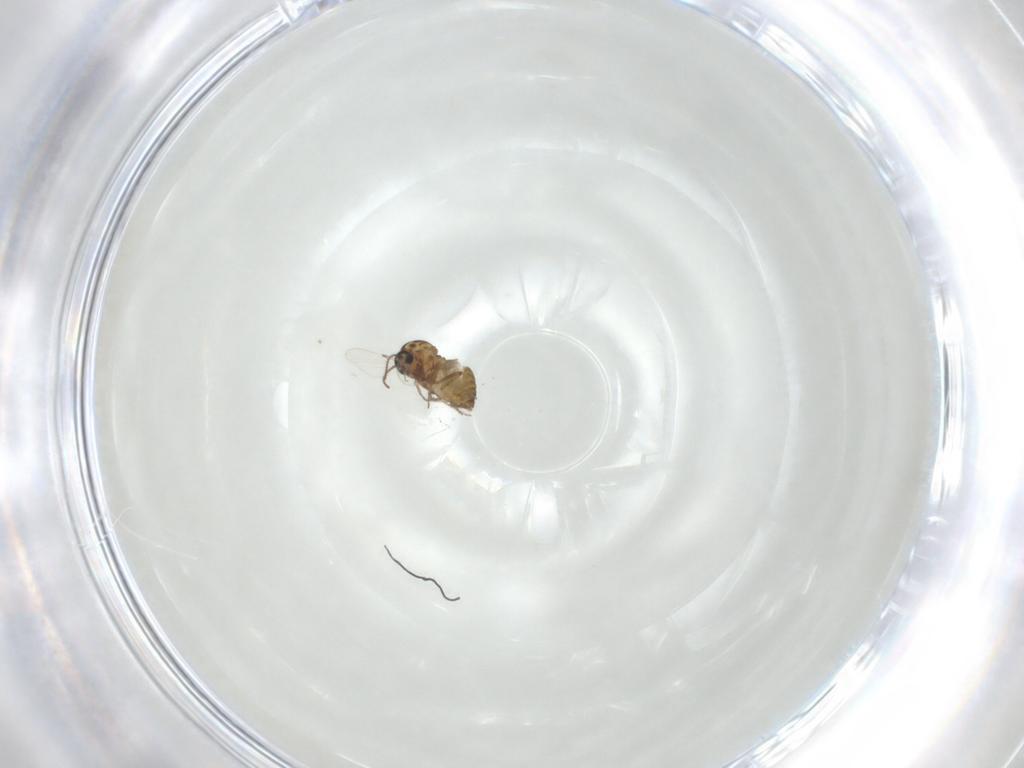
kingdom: Animalia
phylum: Arthropoda
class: Insecta
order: Diptera
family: Ceratopogonidae
